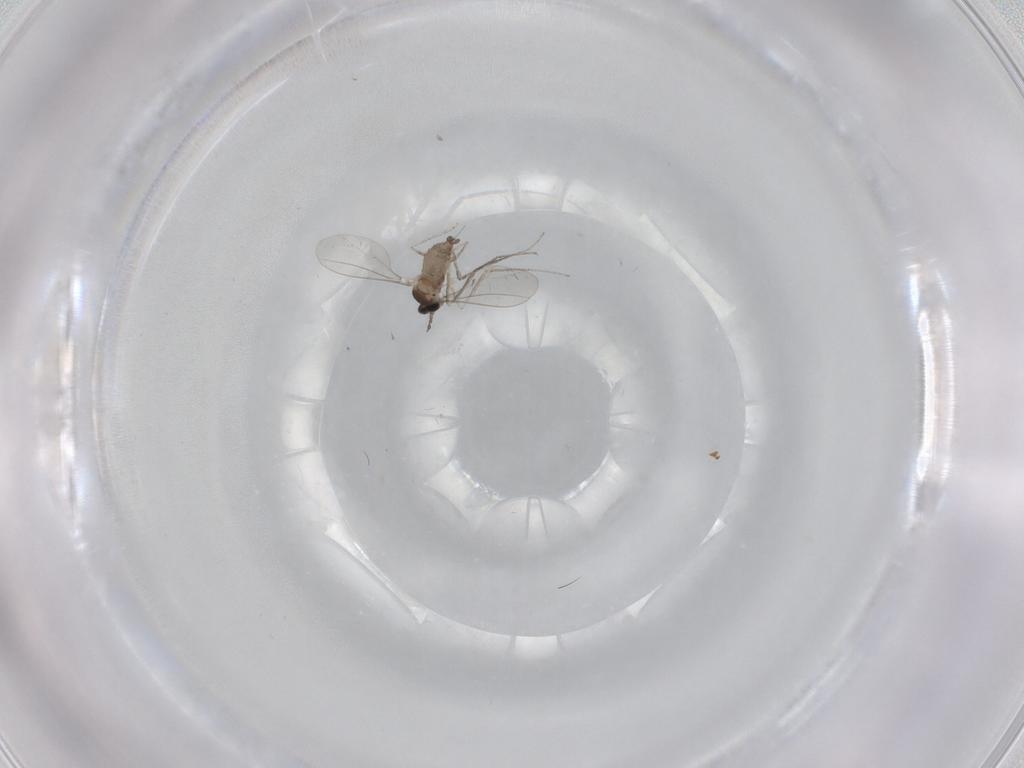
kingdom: Animalia
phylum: Arthropoda
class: Insecta
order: Diptera
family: Cecidomyiidae
